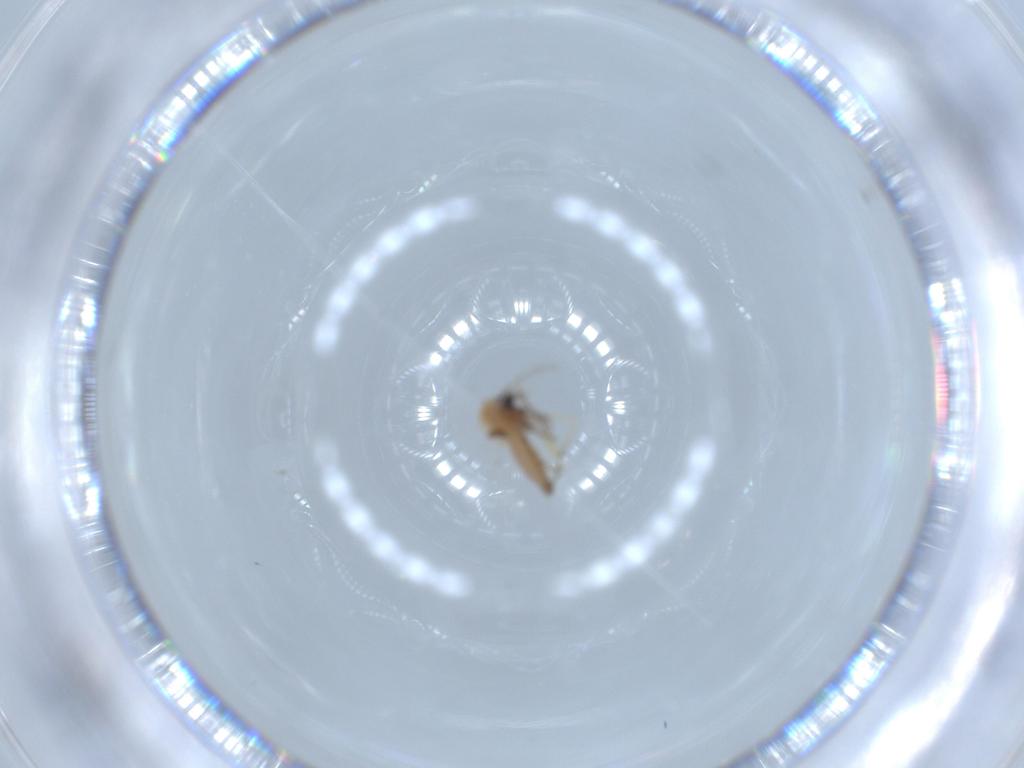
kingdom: Animalia
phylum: Arthropoda
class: Insecta
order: Diptera
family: Ceratopogonidae
